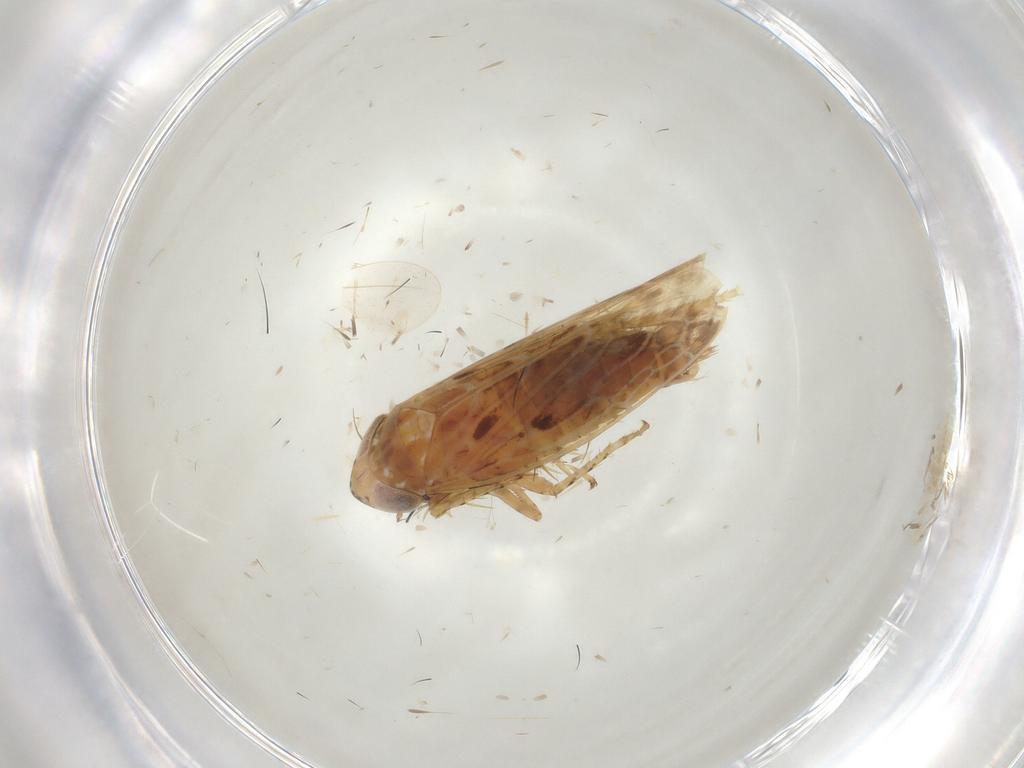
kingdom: Animalia
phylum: Arthropoda
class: Insecta
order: Hemiptera
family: Cicadellidae
